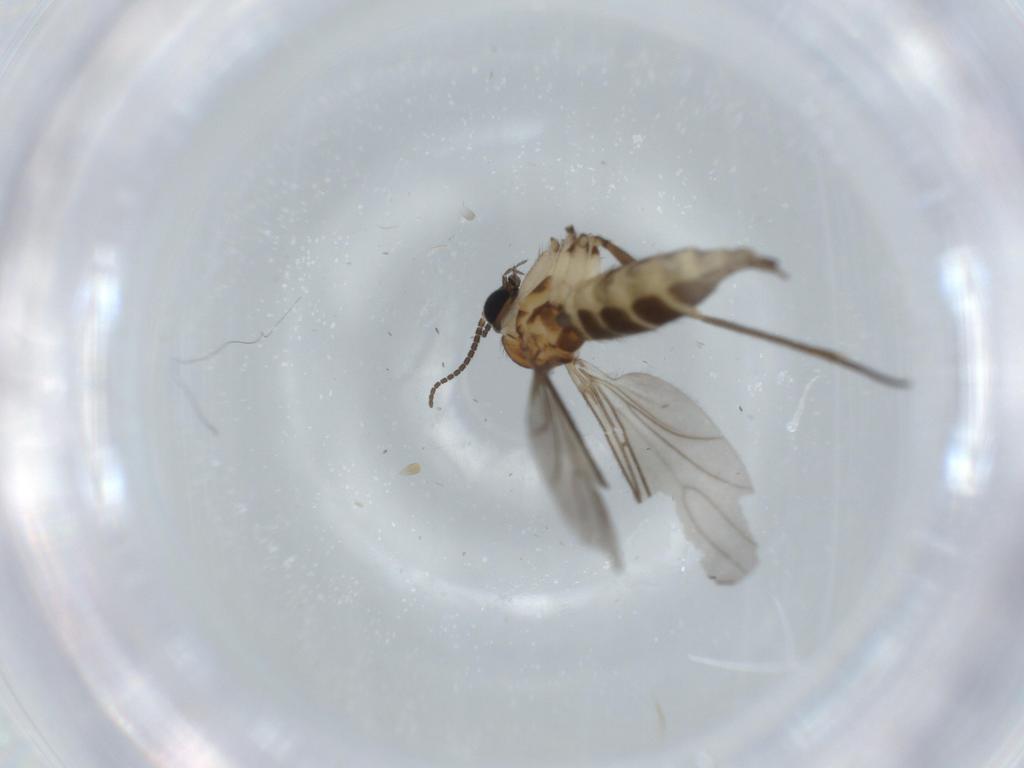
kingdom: Animalia
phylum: Arthropoda
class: Insecta
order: Diptera
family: Sciaridae
